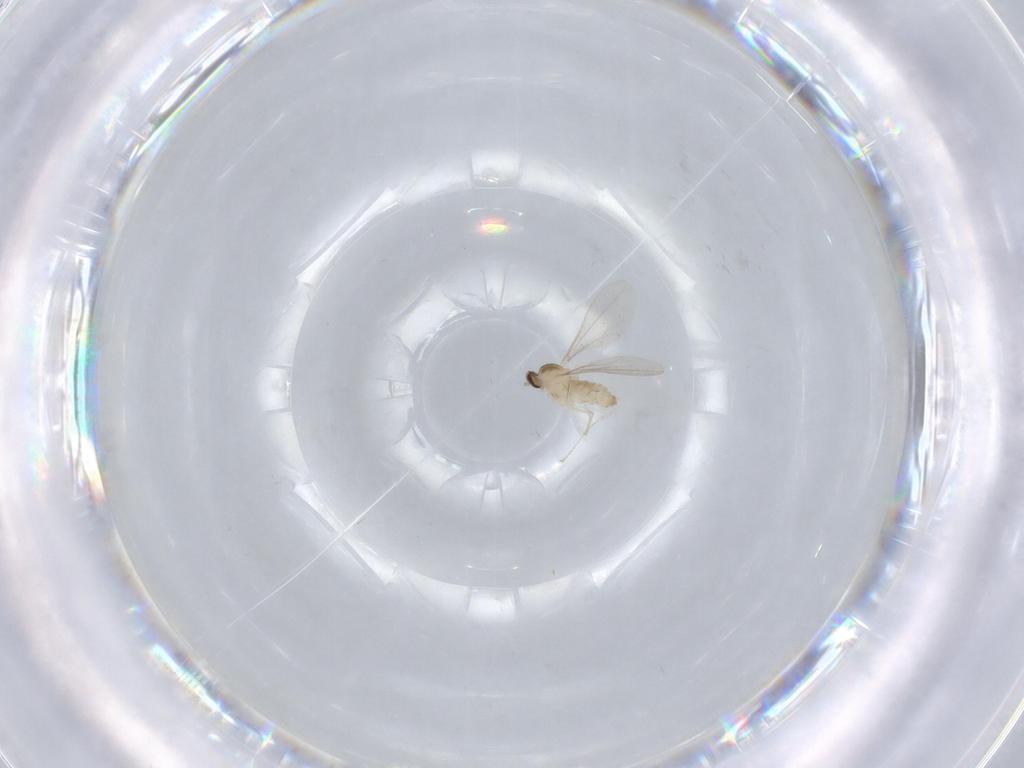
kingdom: Animalia
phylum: Arthropoda
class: Insecta
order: Diptera
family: Cecidomyiidae
